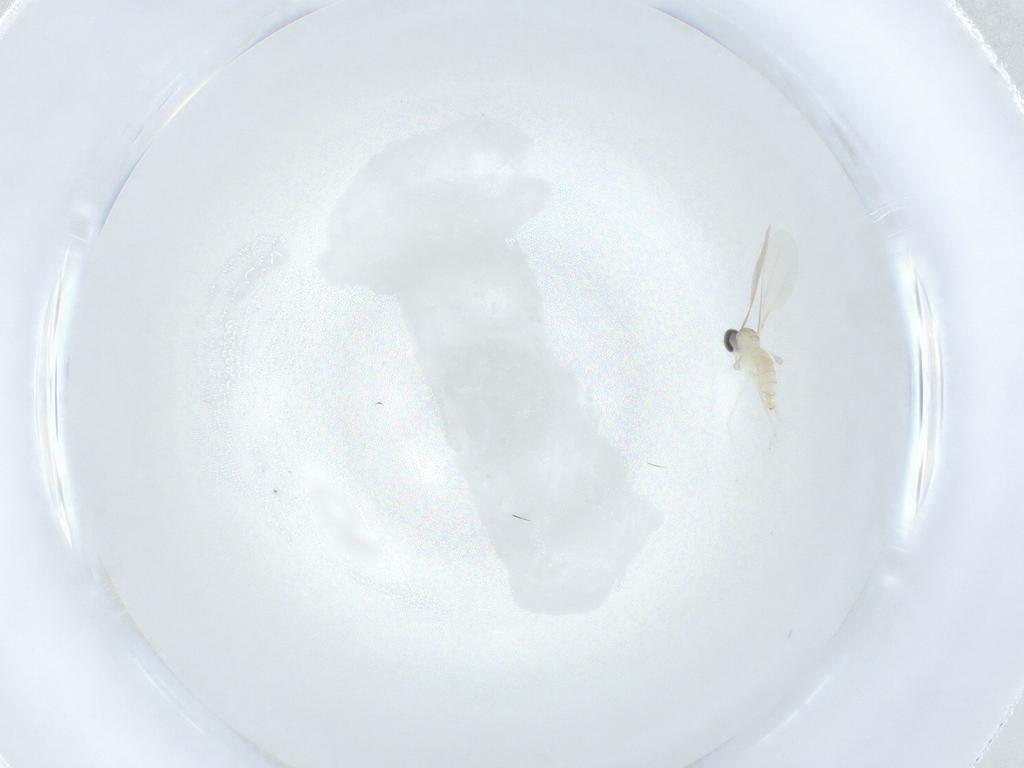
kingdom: Animalia
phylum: Arthropoda
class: Insecta
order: Diptera
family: Cecidomyiidae
